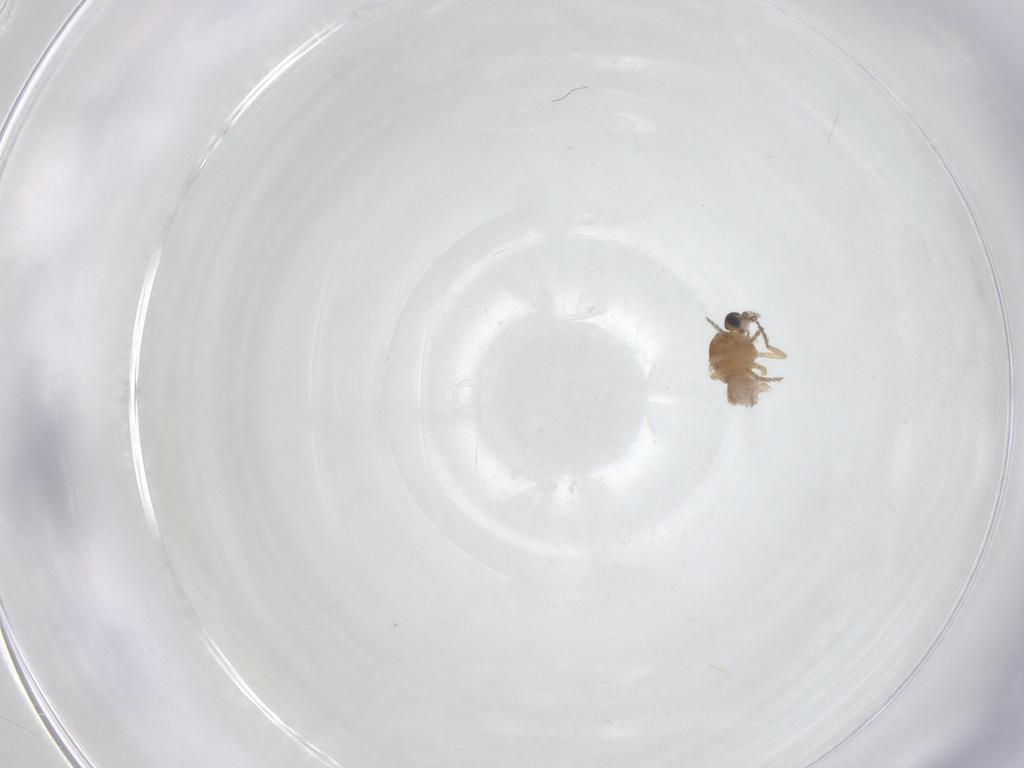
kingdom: Animalia
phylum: Arthropoda
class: Insecta
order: Diptera
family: Ceratopogonidae
